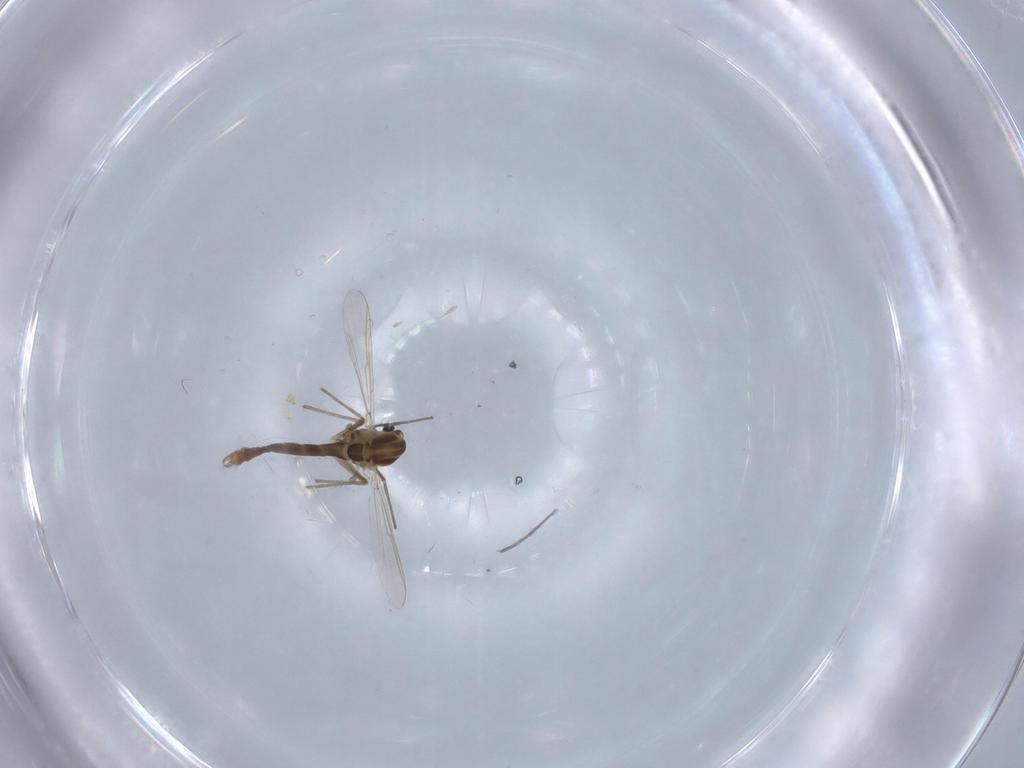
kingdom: Animalia
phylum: Arthropoda
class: Insecta
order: Diptera
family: Chironomidae
